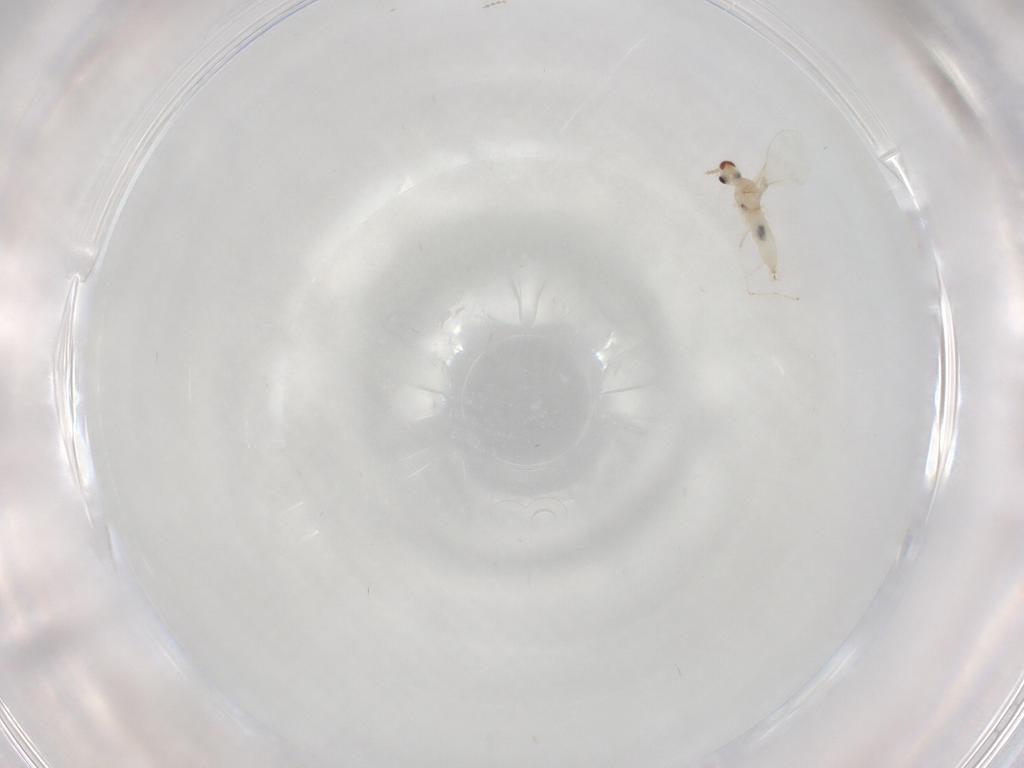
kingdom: Animalia
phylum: Arthropoda
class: Insecta
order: Diptera
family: Cecidomyiidae
